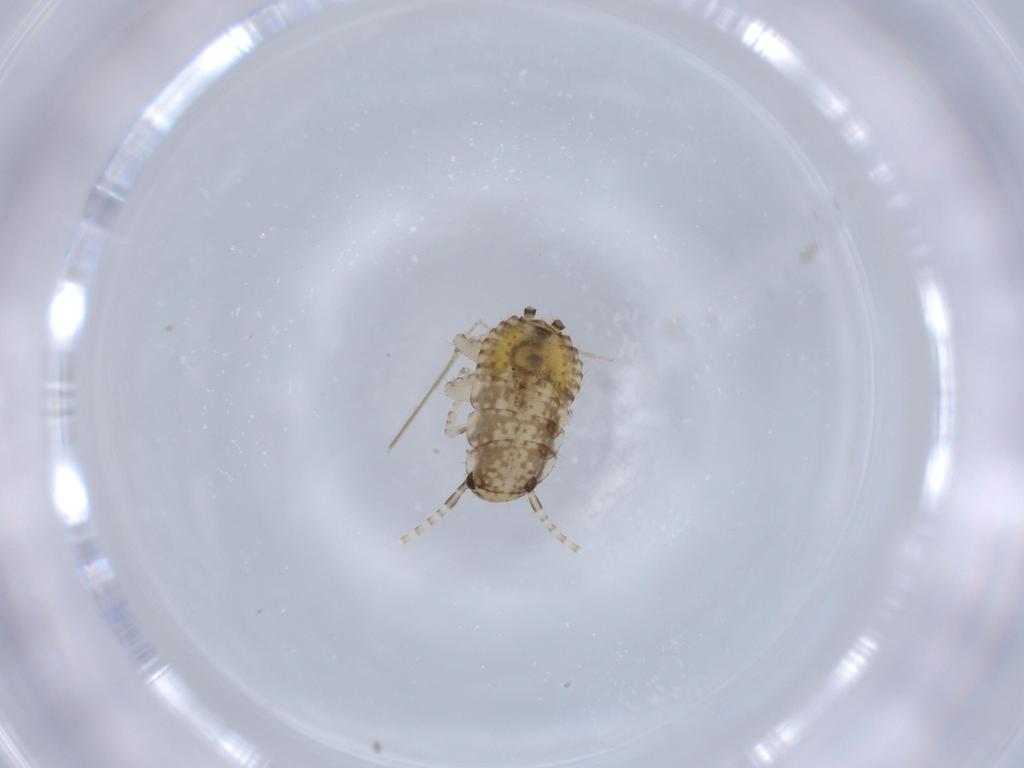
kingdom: Animalia
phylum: Arthropoda
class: Insecta
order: Blattodea
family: Ectobiidae
